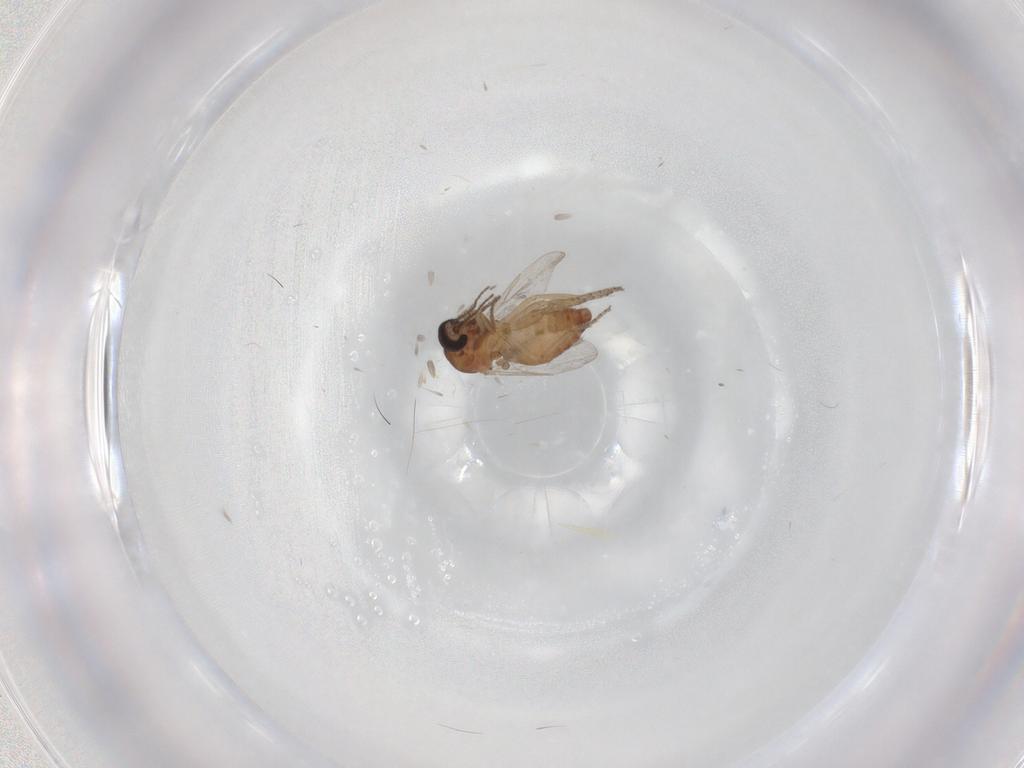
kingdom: Animalia
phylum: Arthropoda
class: Insecta
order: Diptera
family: Ceratopogonidae
